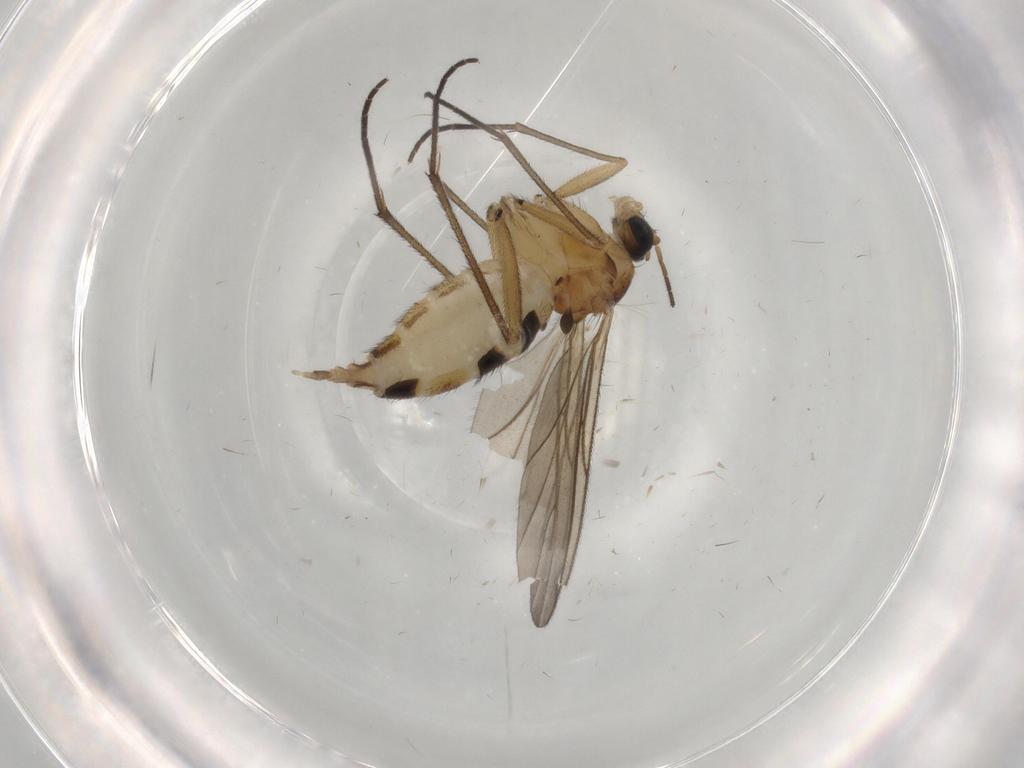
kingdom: Animalia
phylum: Arthropoda
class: Insecta
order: Diptera
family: Sciaridae
